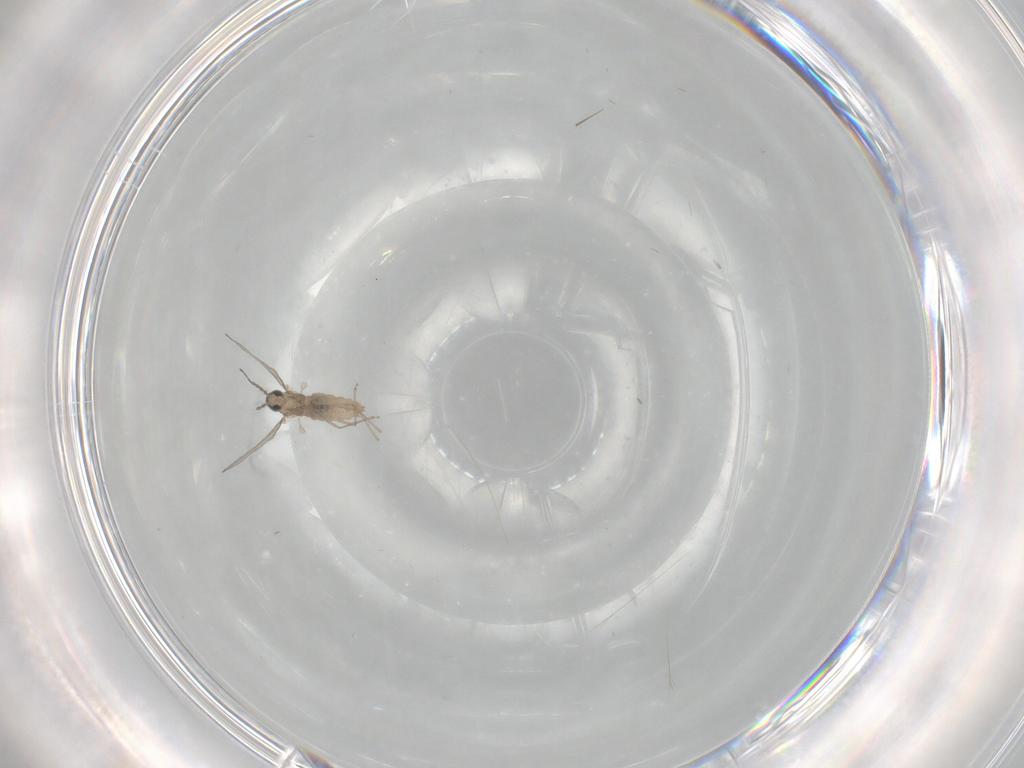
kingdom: Animalia
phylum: Arthropoda
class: Insecta
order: Diptera
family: Cecidomyiidae
